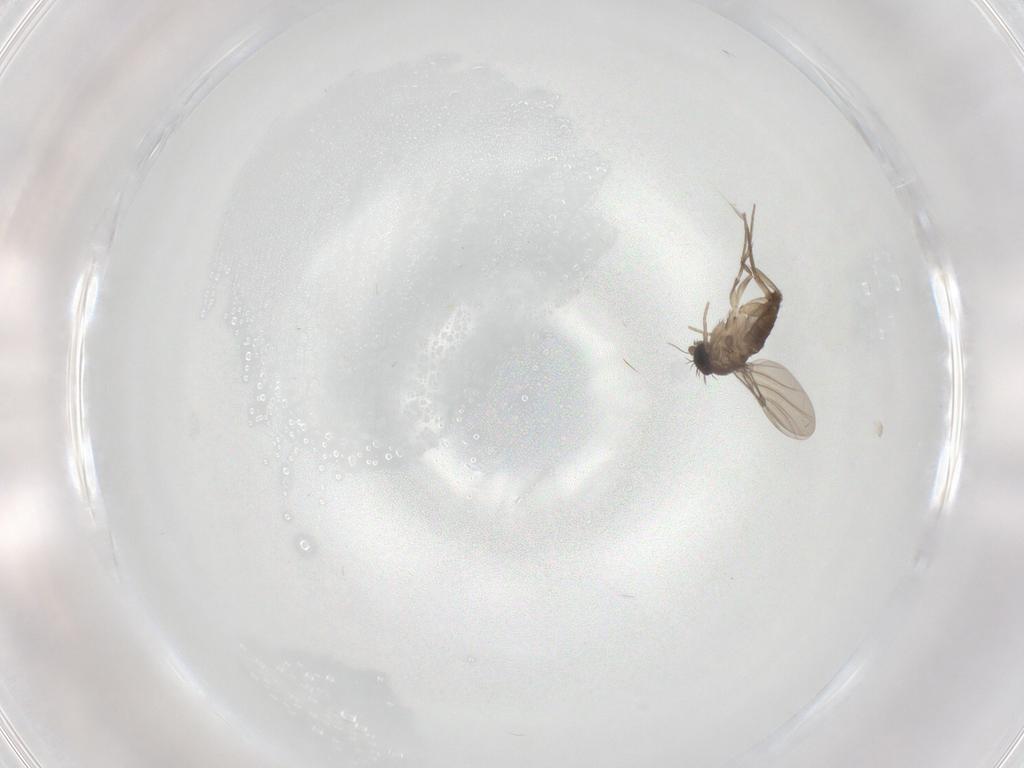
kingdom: Animalia
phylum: Arthropoda
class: Insecta
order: Diptera
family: Phoridae
